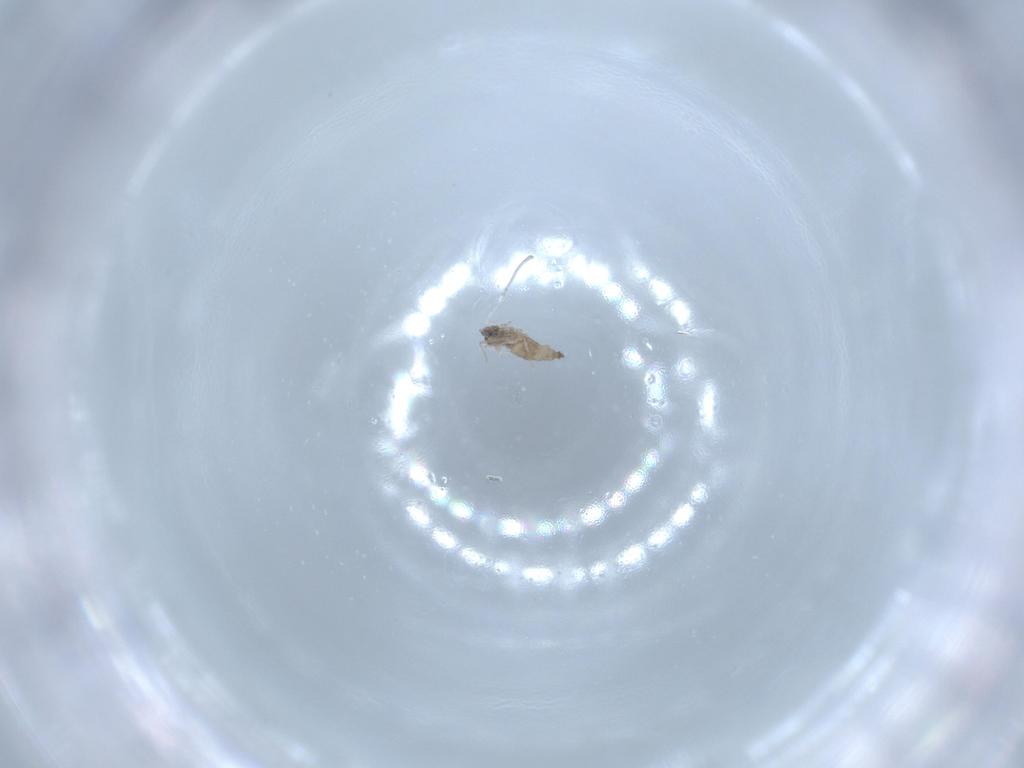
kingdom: Animalia
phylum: Arthropoda
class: Insecta
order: Diptera
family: Cecidomyiidae
